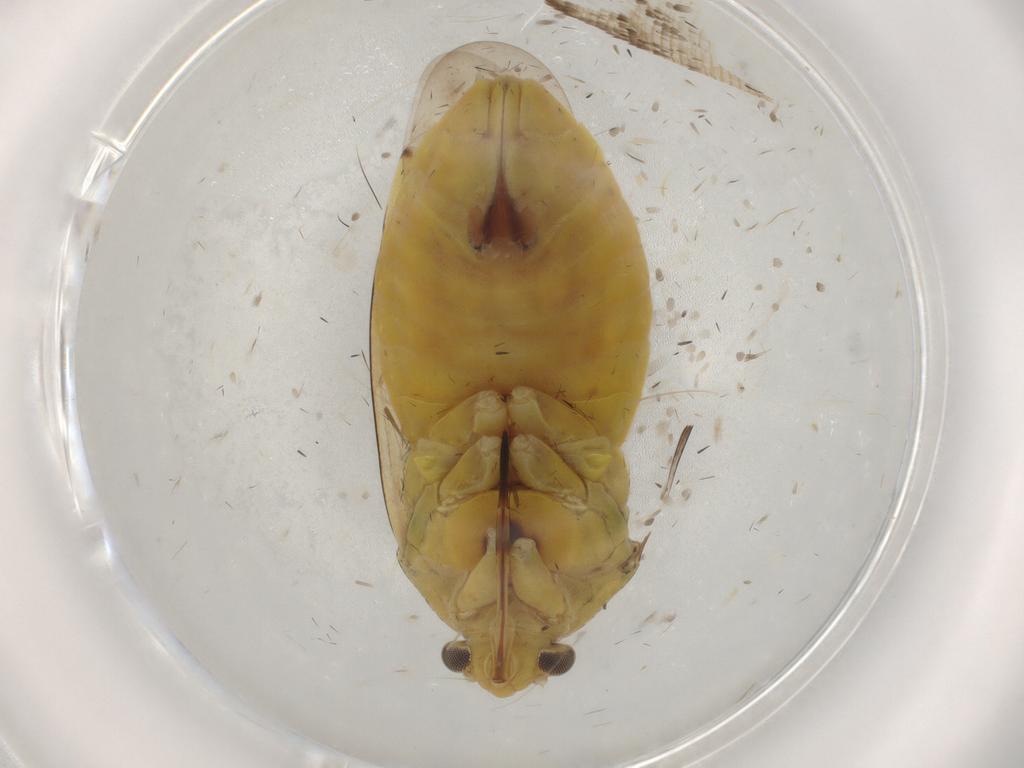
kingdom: Animalia
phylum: Arthropoda
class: Insecta
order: Hemiptera
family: Miridae
